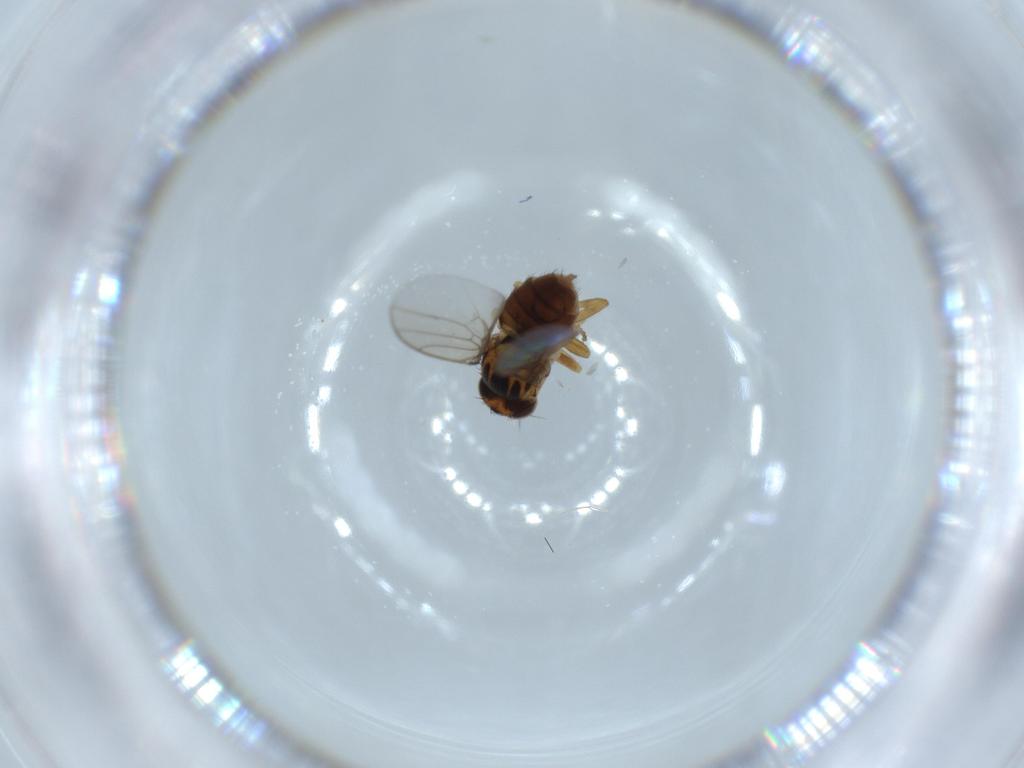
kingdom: Animalia
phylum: Arthropoda
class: Insecta
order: Diptera
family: Chloropidae
